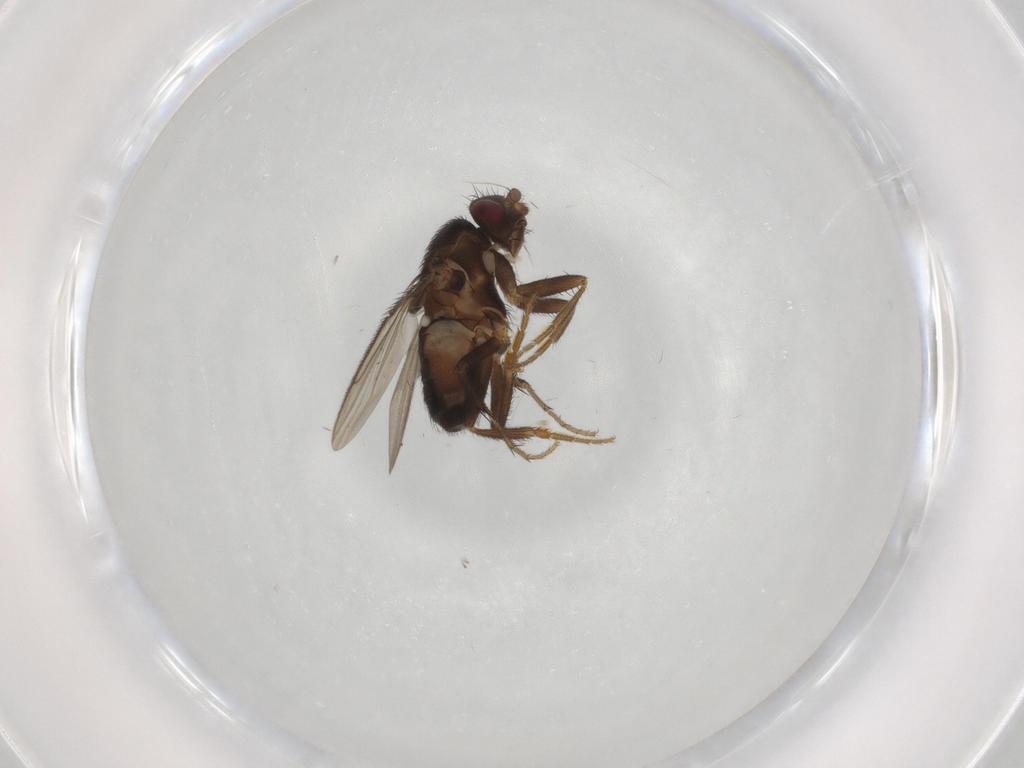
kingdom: Animalia
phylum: Arthropoda
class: Insecta
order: Diptera
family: Sphaeroceridae
